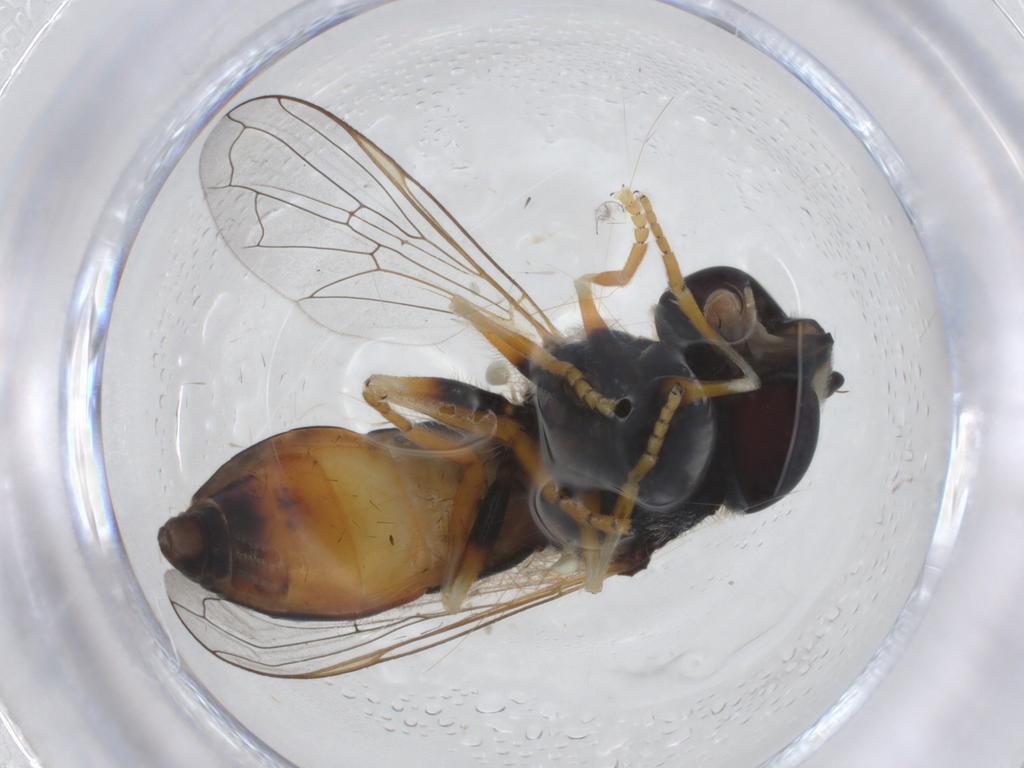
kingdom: Animalia
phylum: Arthropoda
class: Insecta
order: Diptera
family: Syrphidae
